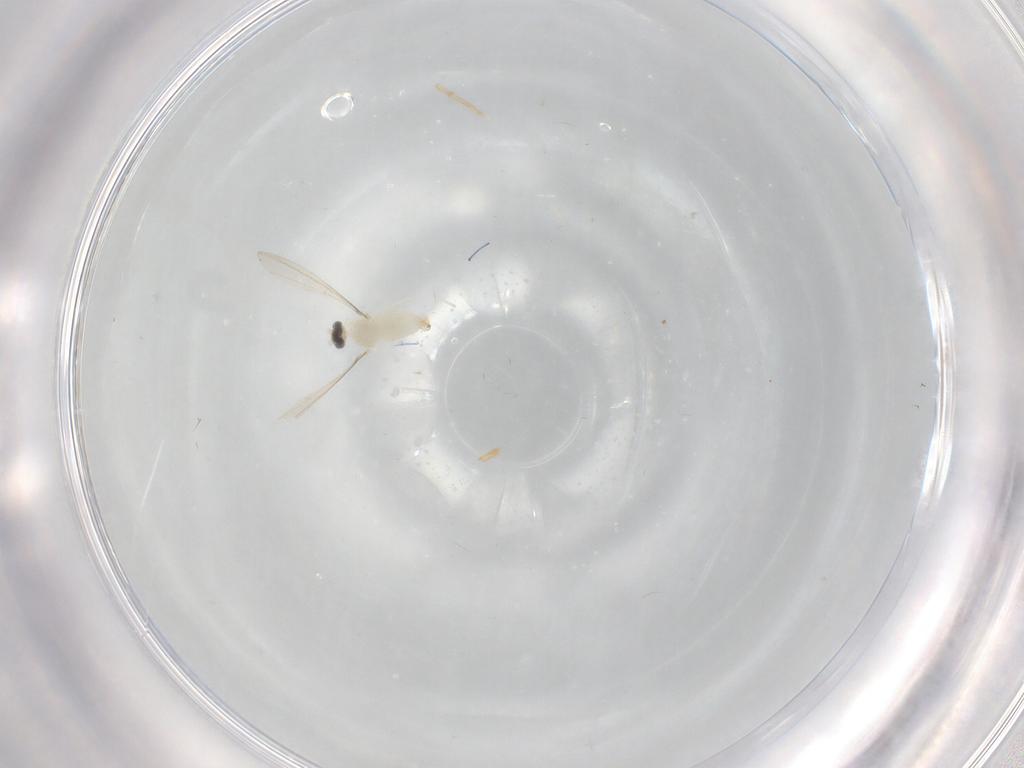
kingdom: Animalia
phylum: Arthropoda
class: Insecta
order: Diptera
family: Cecidomyiidae
